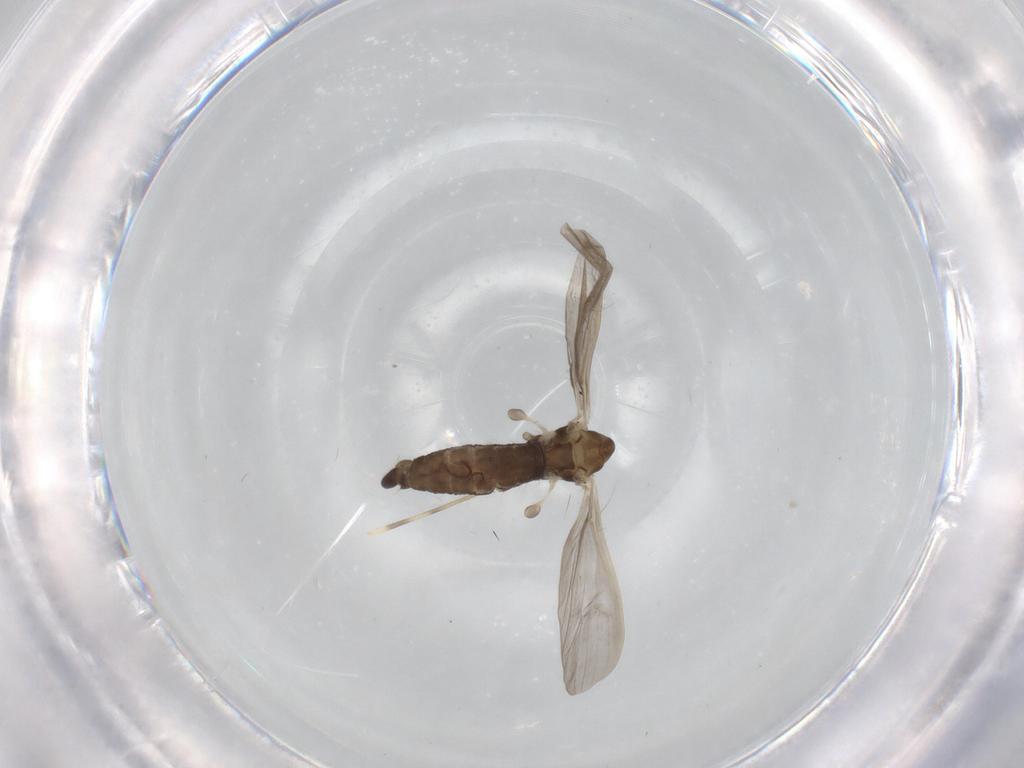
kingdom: Animalia
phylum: Arthropoda
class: Insecta
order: Diptera
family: Limoniidae
